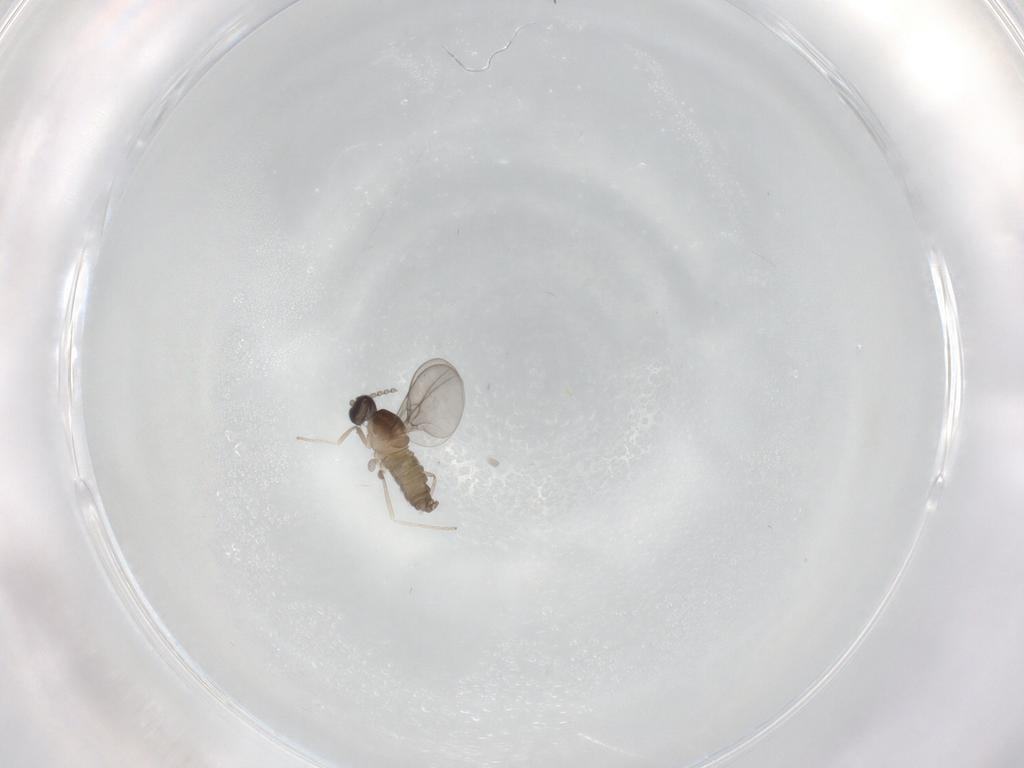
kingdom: Animalia
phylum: Arthropoda
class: Insecta
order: Diptera
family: Cecidomyiidae
